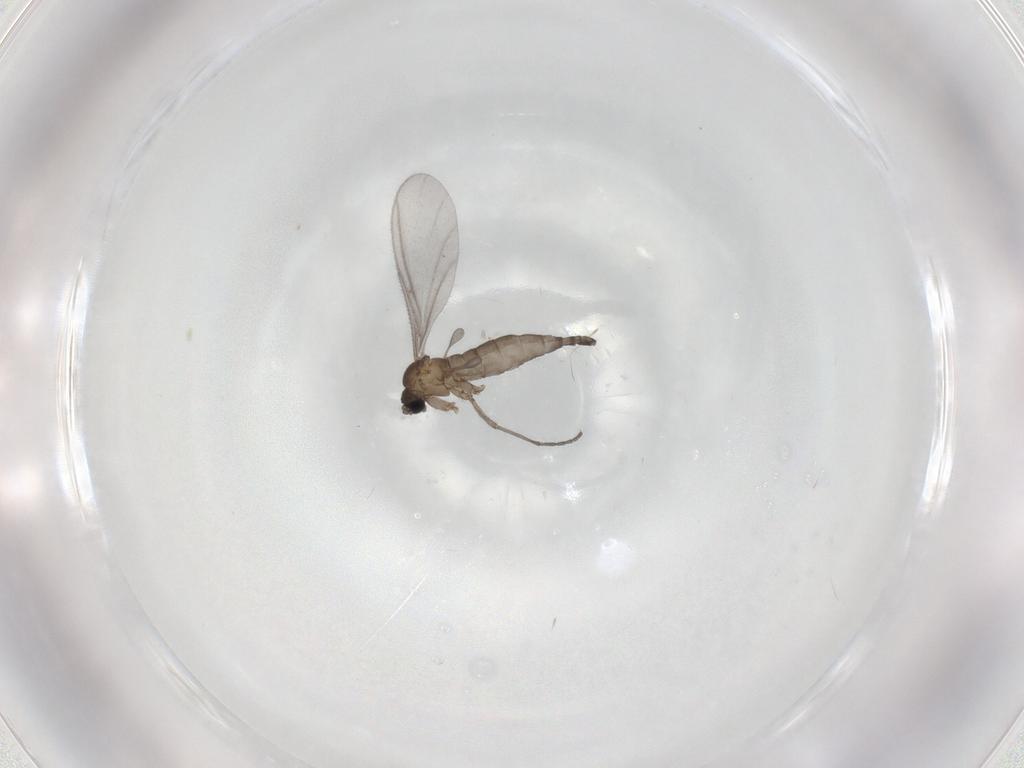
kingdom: Animalia
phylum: Arthropoda
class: Insecta
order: Diptera
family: Sciaridae
